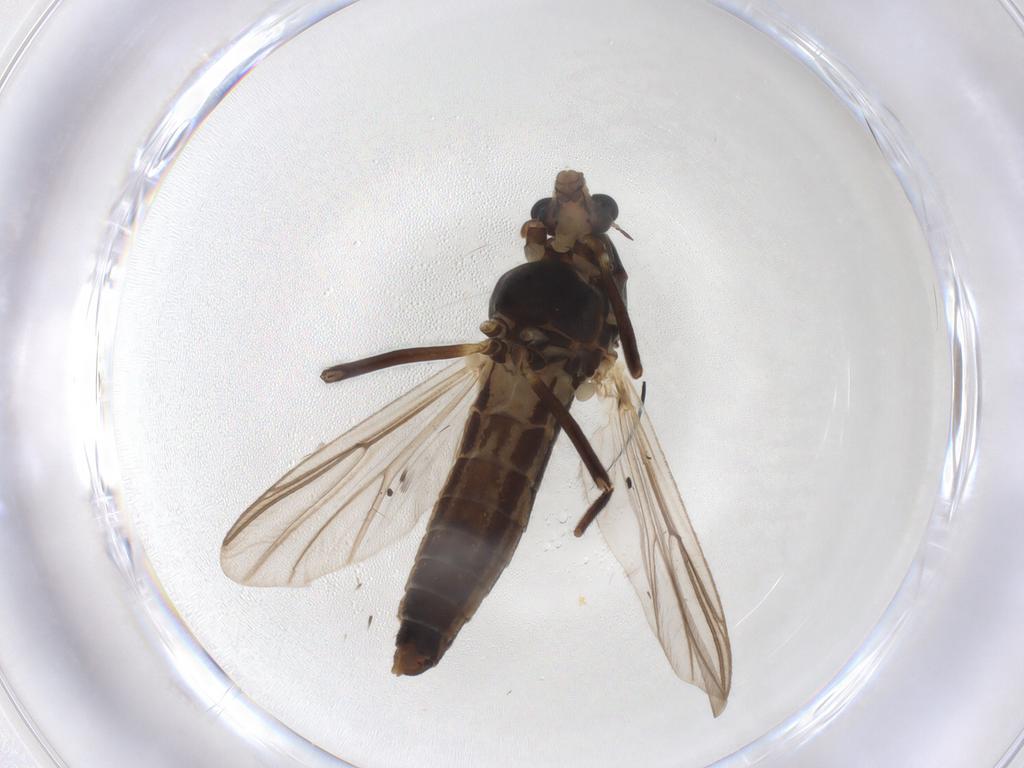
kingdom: Animalia
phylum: Arthropoda
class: Insecta
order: Diptera
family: Chironomidae
